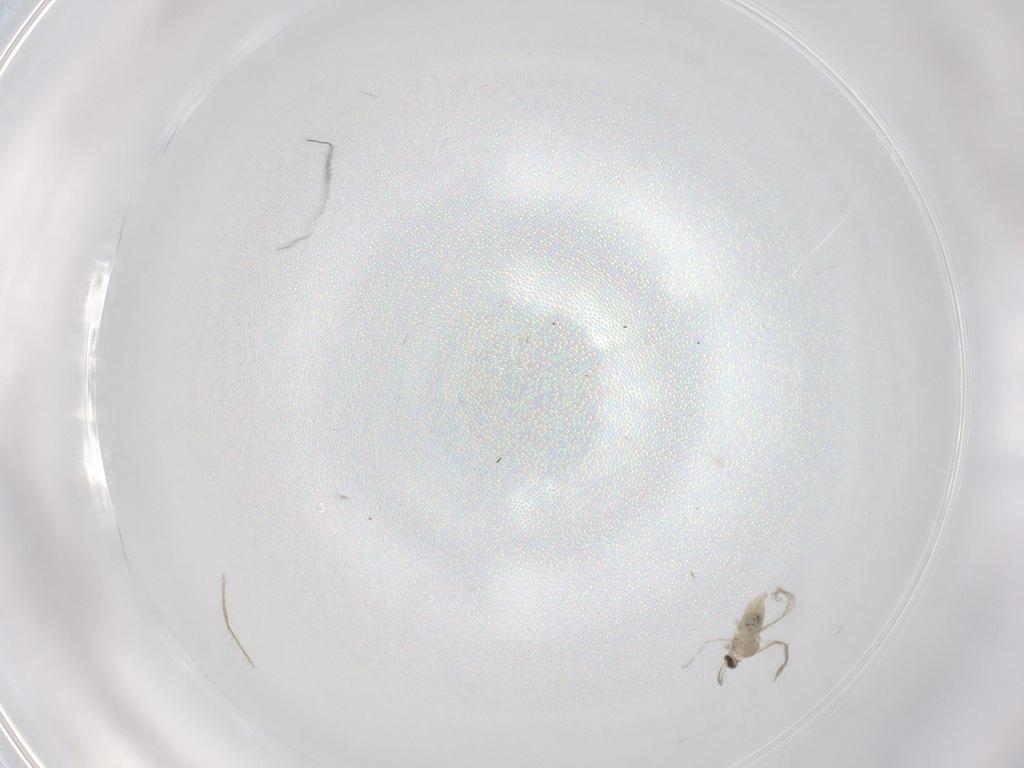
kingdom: Animalia
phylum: Arthropoda
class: Insecta
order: Diptera
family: Cecidomyiidae
